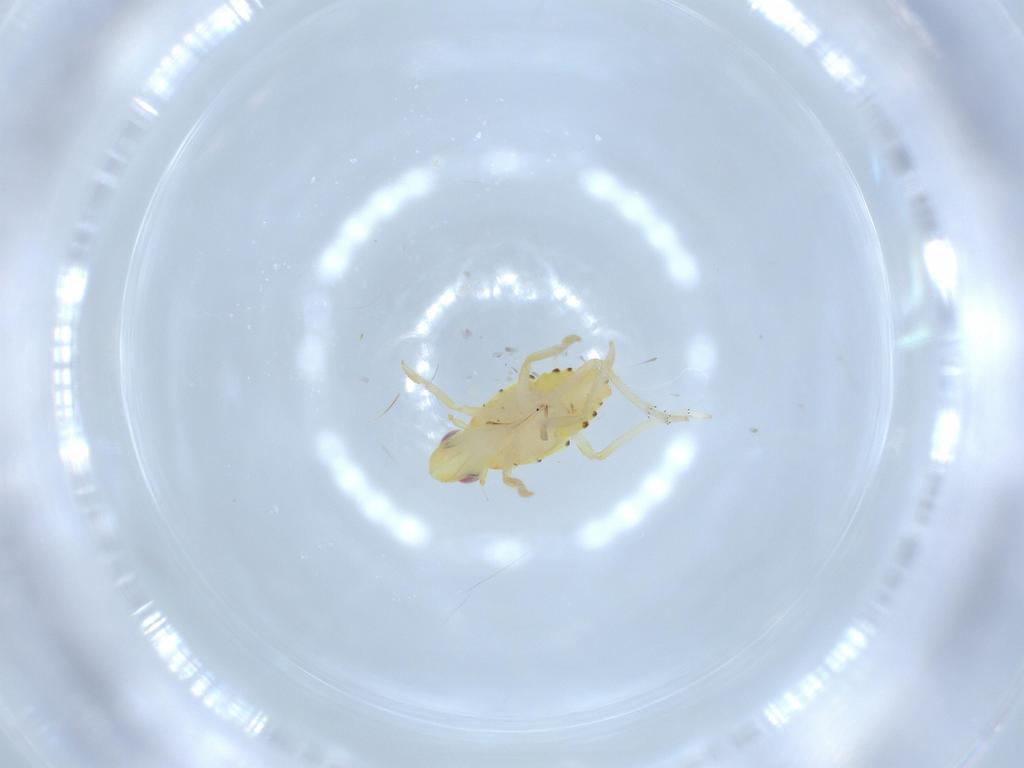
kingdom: Animalia
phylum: Arthropoda
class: Insecta
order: Hemiptera
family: Tropiduchidae
